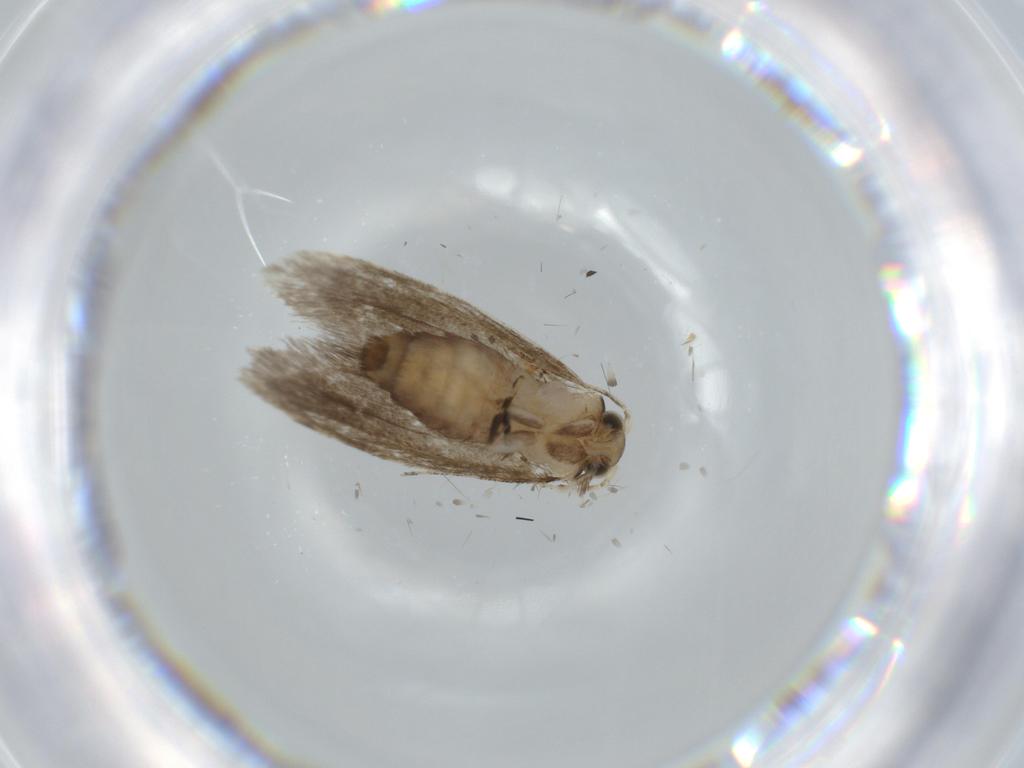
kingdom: Animalia
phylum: Arthropoda
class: Insecta
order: Lepidoptera
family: Tineidae
